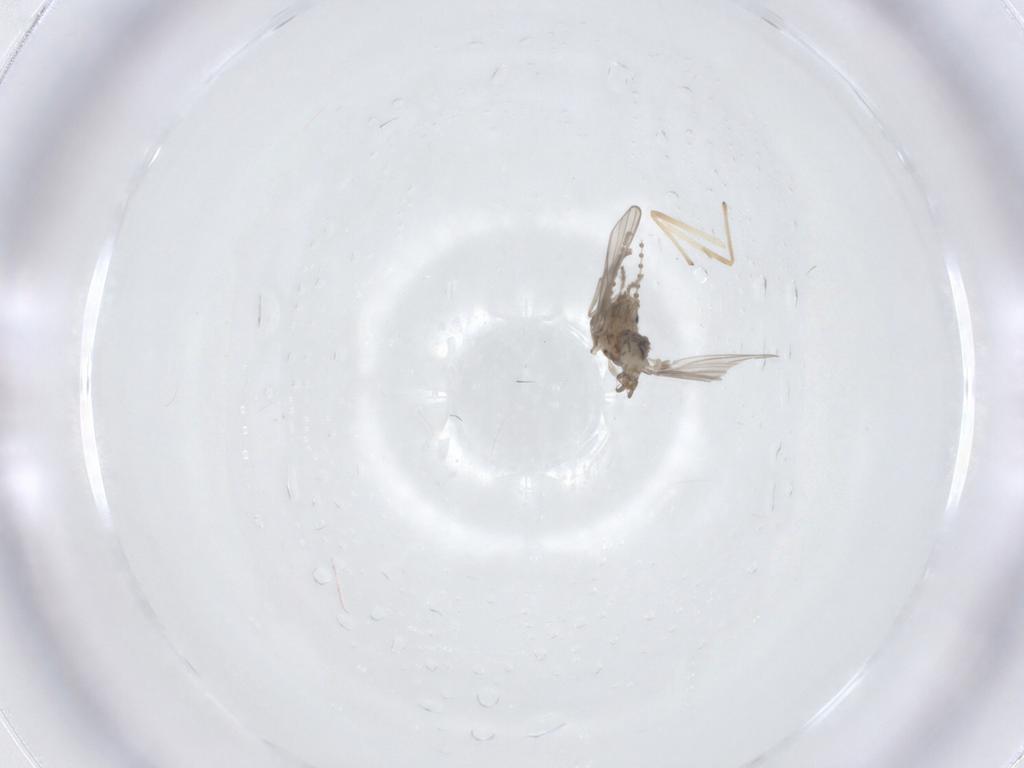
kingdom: Animalia
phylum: Arthropoda
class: Insecta
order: Diptera
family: Psychodidae
